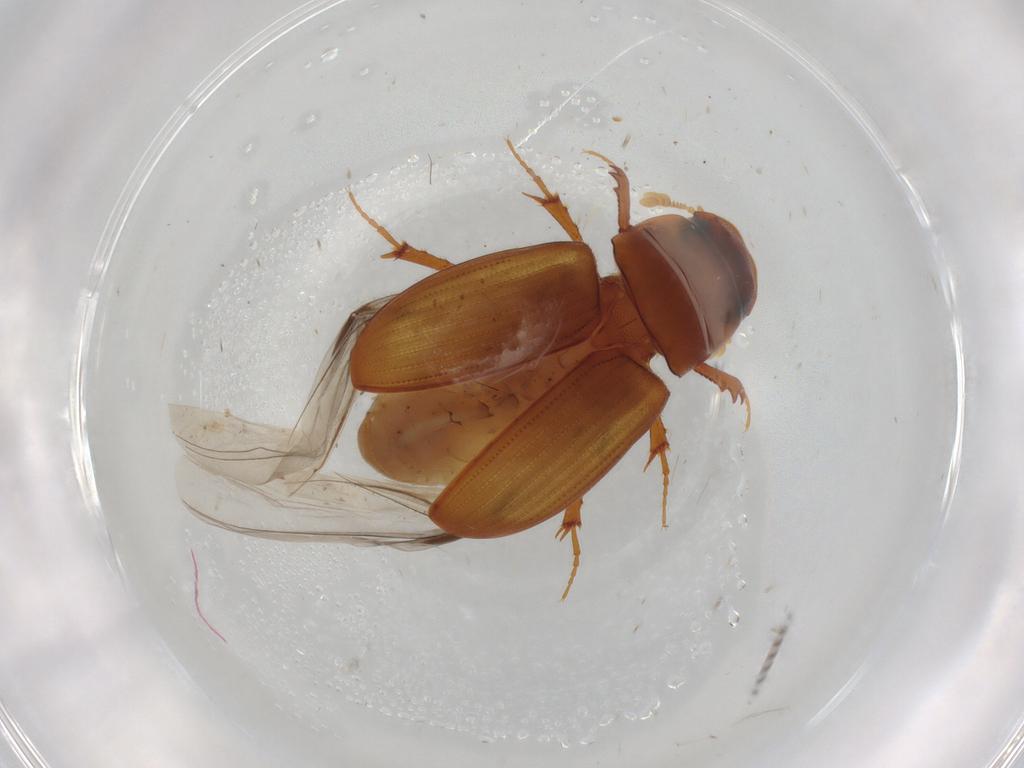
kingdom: Animalia
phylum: Arthropoda
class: Insecta
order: Coleoptera
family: Scarabaeidae
